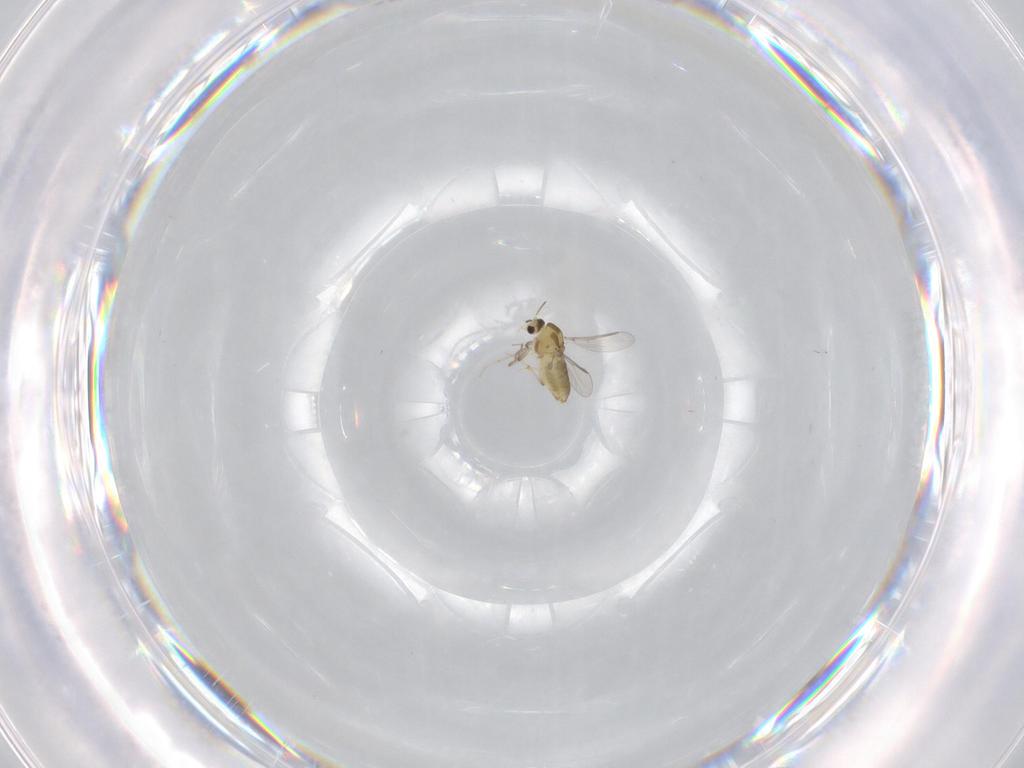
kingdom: Animalia
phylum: Arthropoda
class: Insecta
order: Diptera
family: Chironomidae
